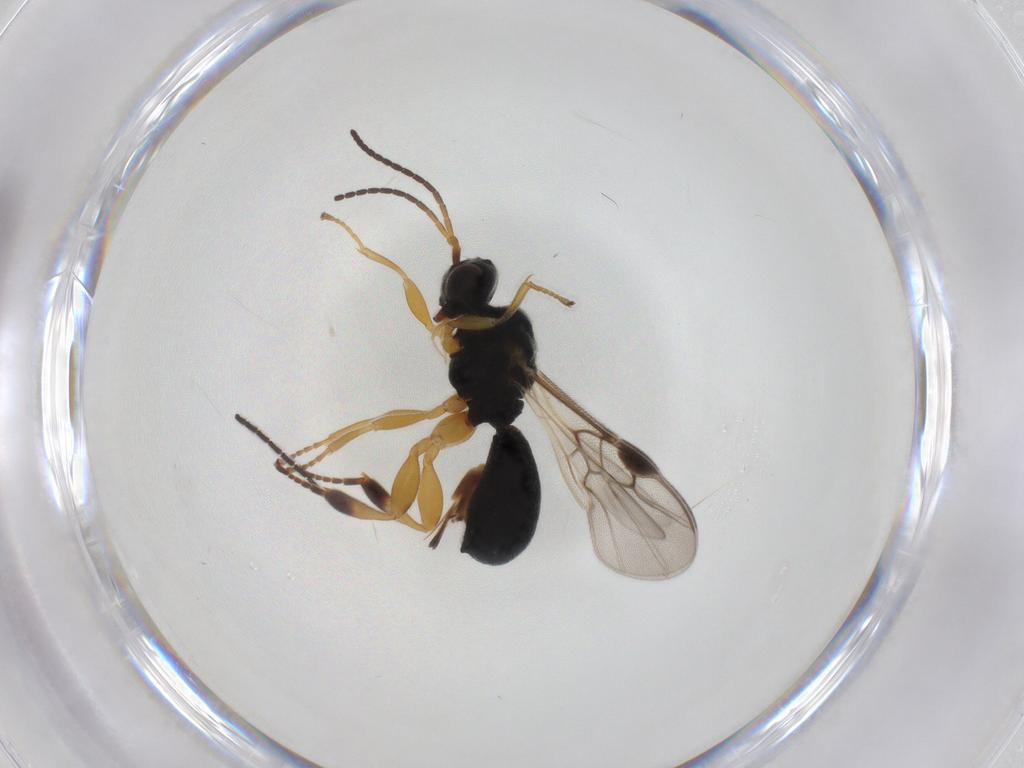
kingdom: Animalia
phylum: Arthropoda
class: Insecta
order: Hymenoptera
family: Braconidae
